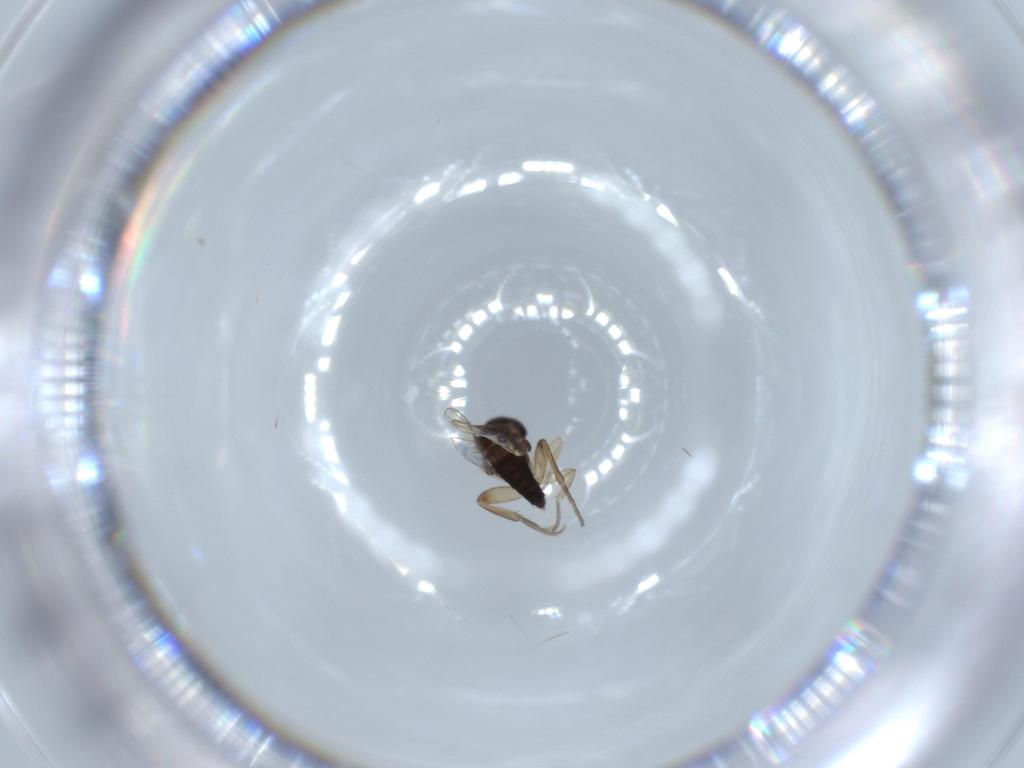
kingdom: Animalia
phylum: Arthropoda
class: Insecta
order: Diptera
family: Phoridae
